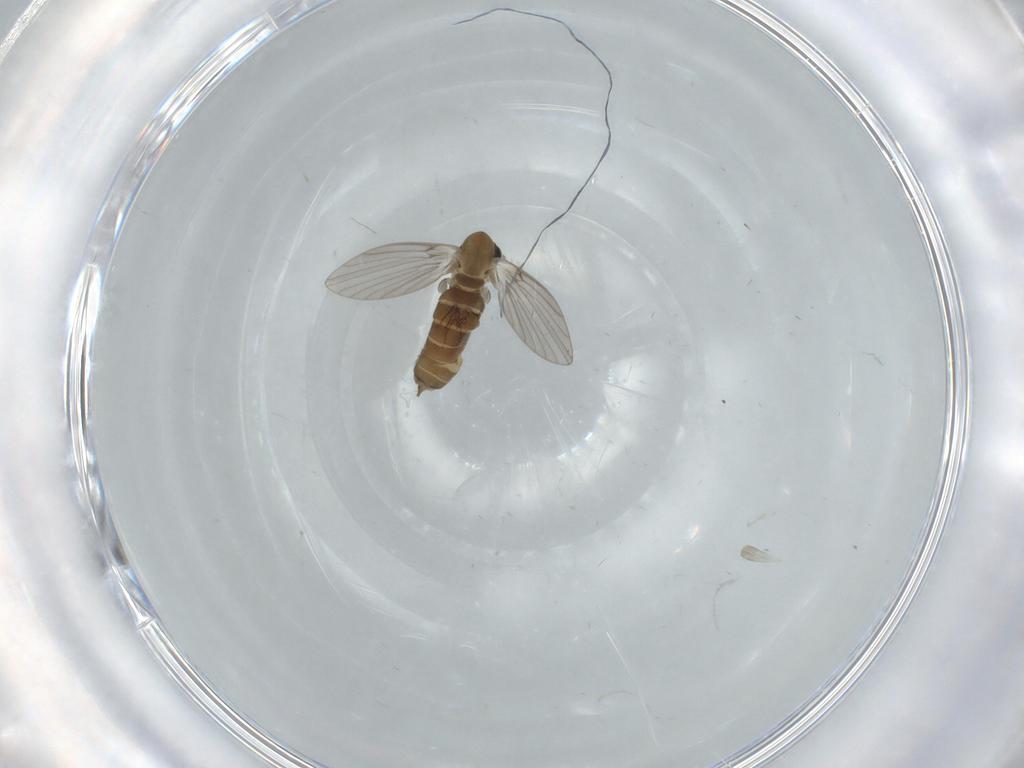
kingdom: Animalia
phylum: Arthropoda
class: Insecta
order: Diptera
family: Psychodidae
